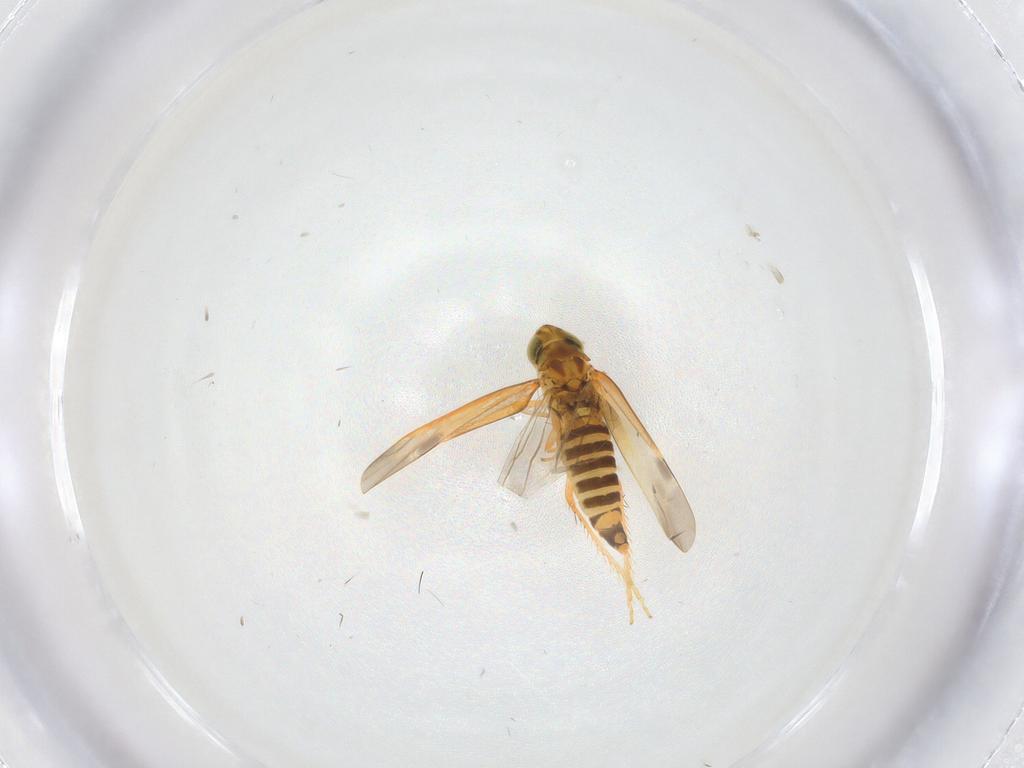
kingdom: Animalia
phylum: Arthropoda
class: Insecta
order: Hemiptera
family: Cicadellidae
